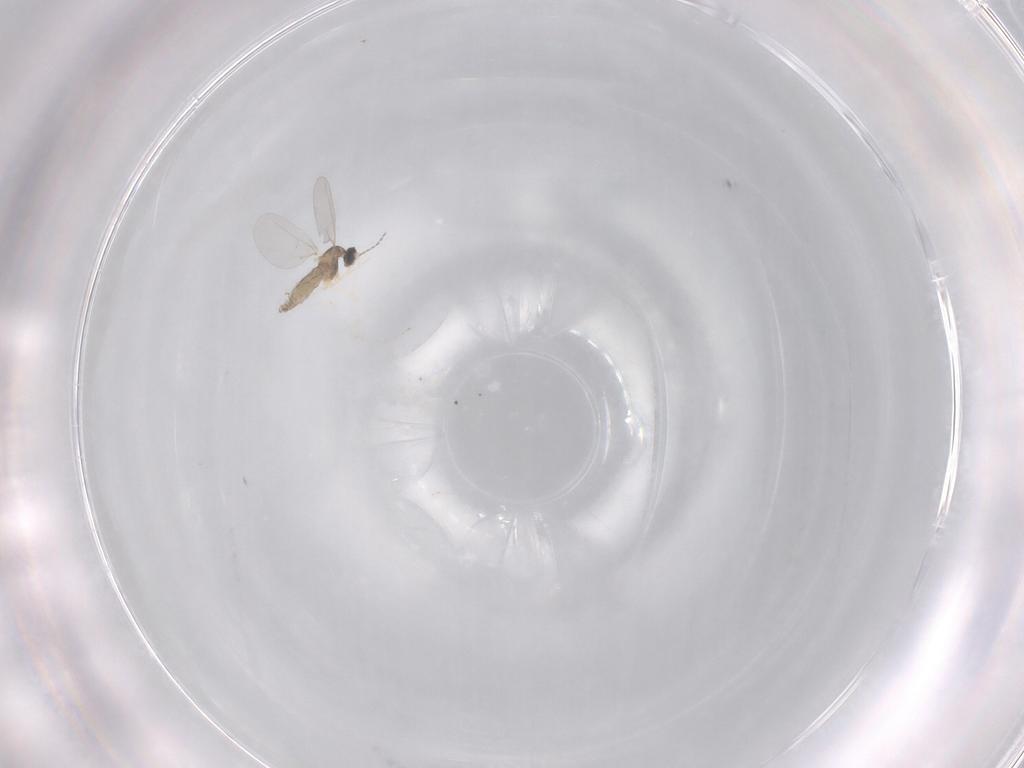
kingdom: Animalia
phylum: Arthropoda
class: Insecta
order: Diptera
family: Cecidomyiidae
